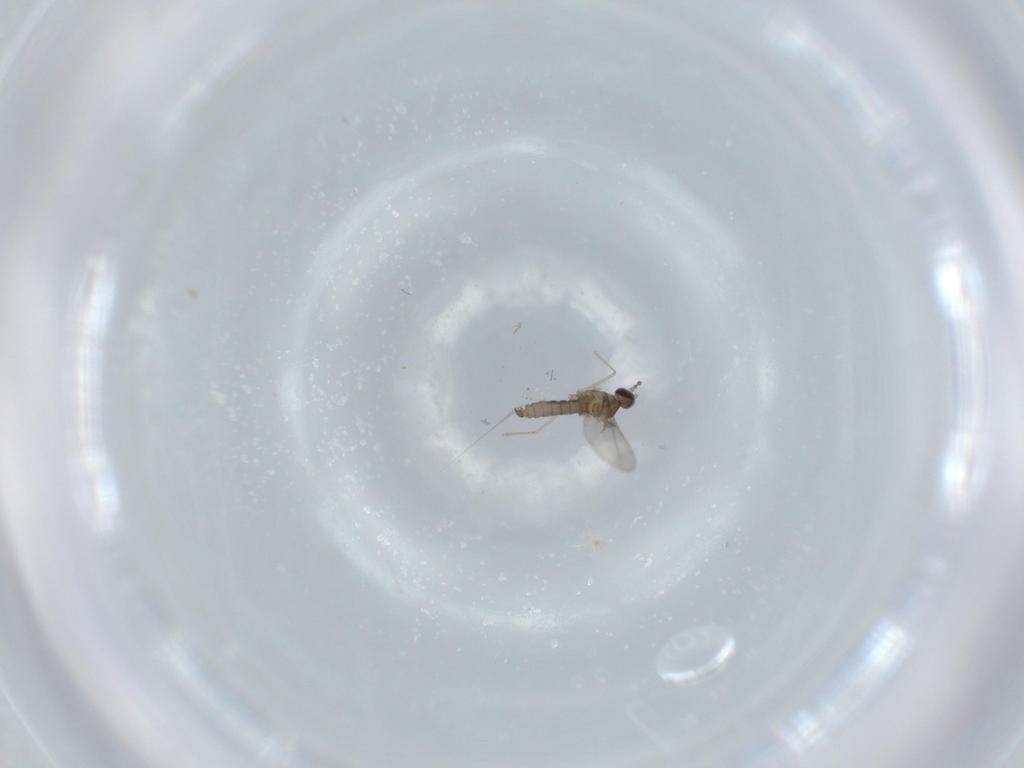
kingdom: Animalia
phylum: Arthropoda
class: Insecta
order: Diptera
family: Cecidomyiidae
